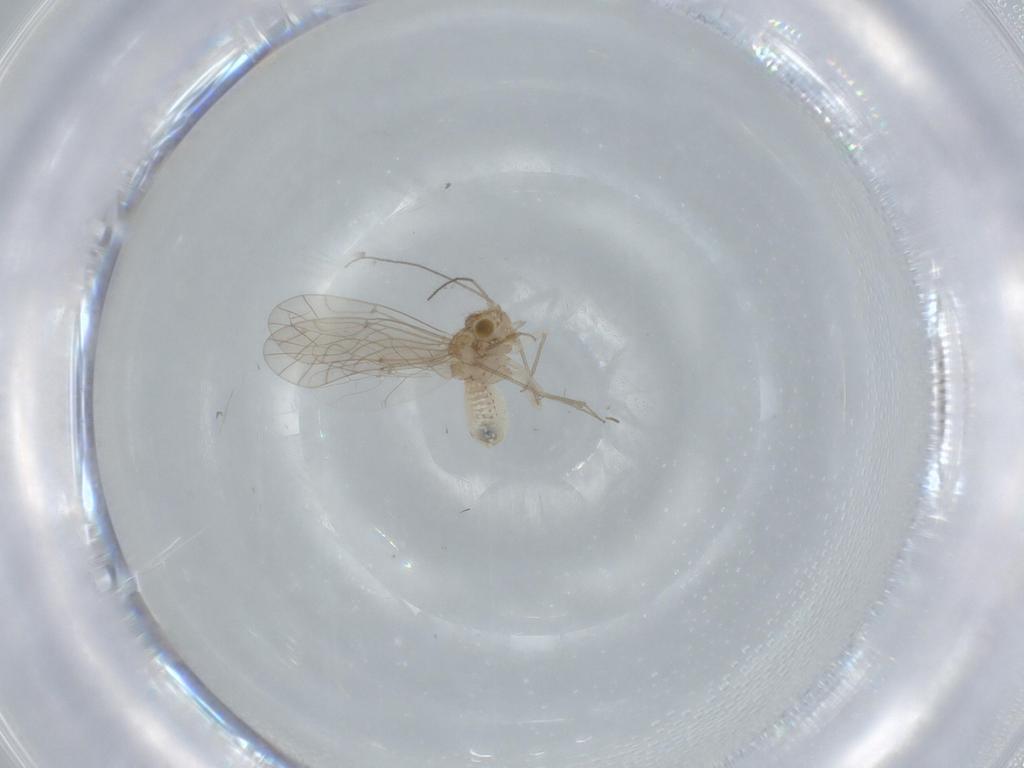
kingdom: Animalia
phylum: Arthropoda
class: Insecta
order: Psocodea
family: Lachesillidae
